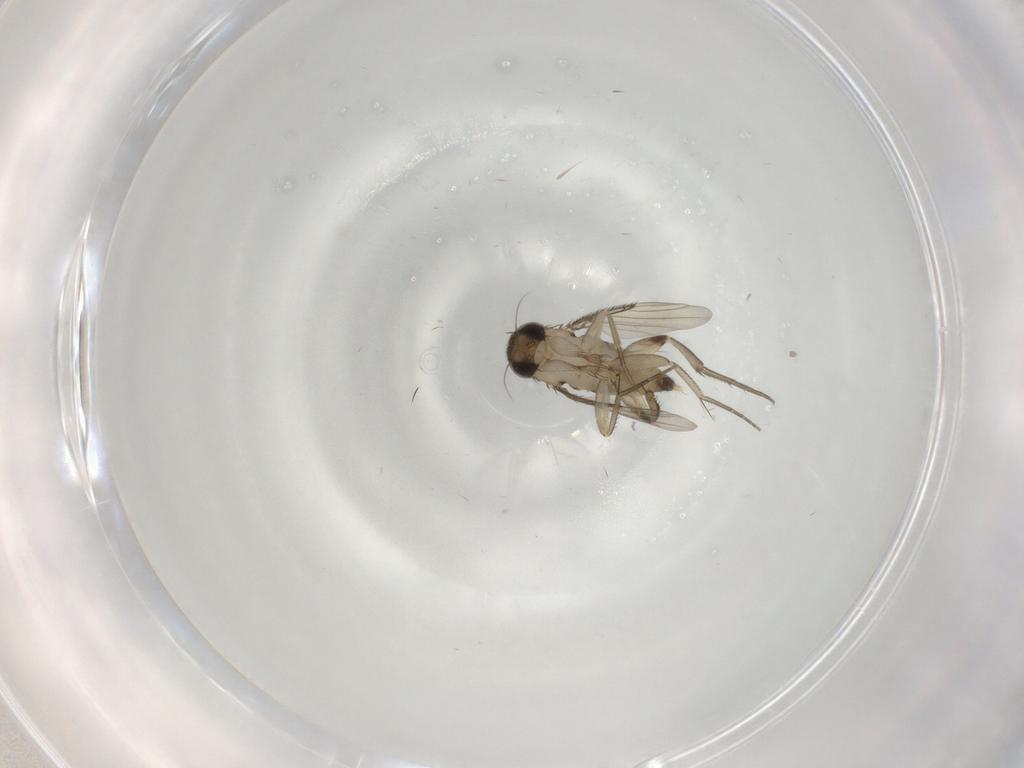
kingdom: Animalia
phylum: Arthropoda
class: Insecta
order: Diptera
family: Phoridae
